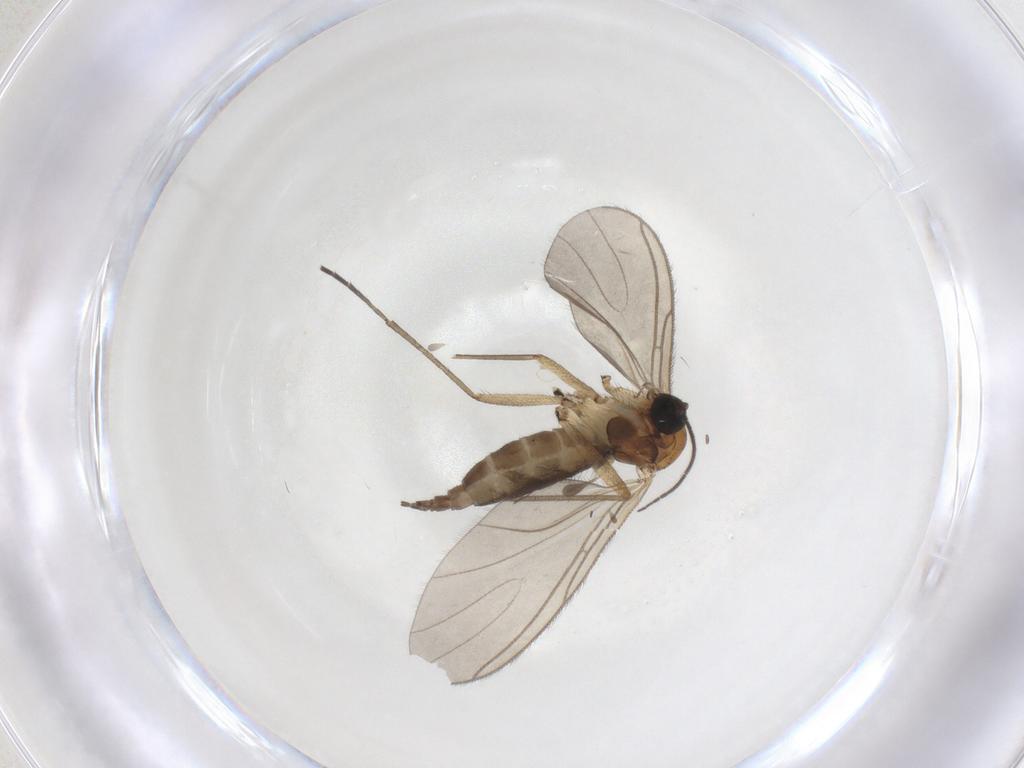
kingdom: Animalia
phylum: Arthropoda
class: Insecta
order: Diptera
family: Sciaridae
